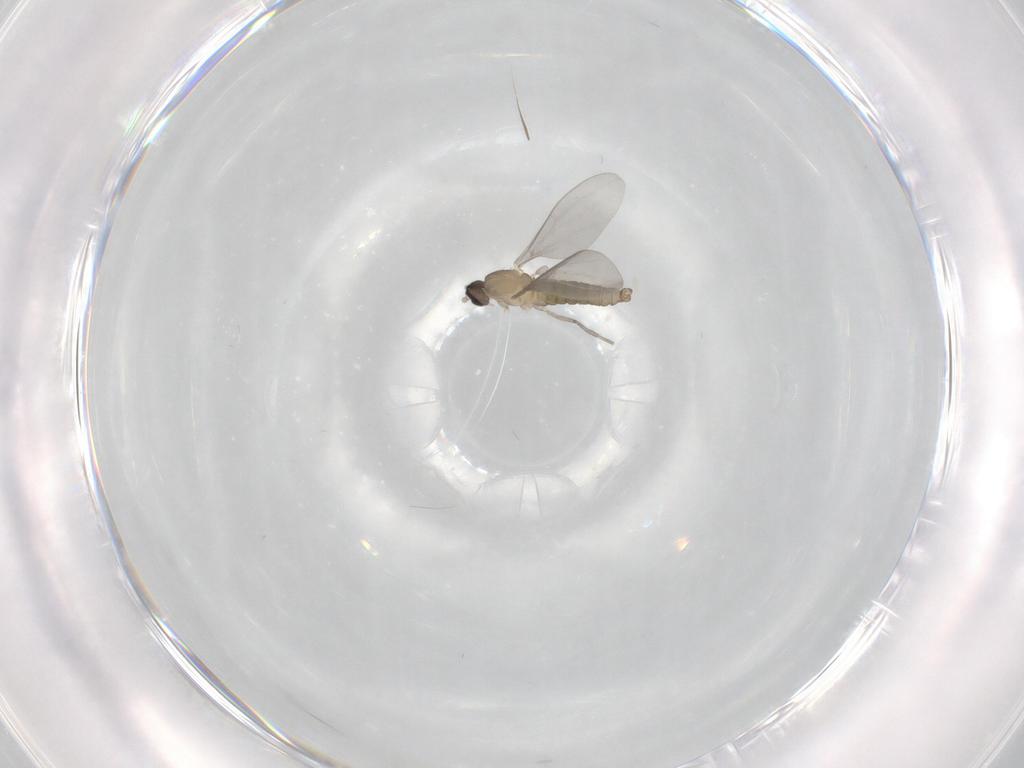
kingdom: Animalia
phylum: Arthropoda
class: Insecta
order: Diptera
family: Cecidomyiidae
